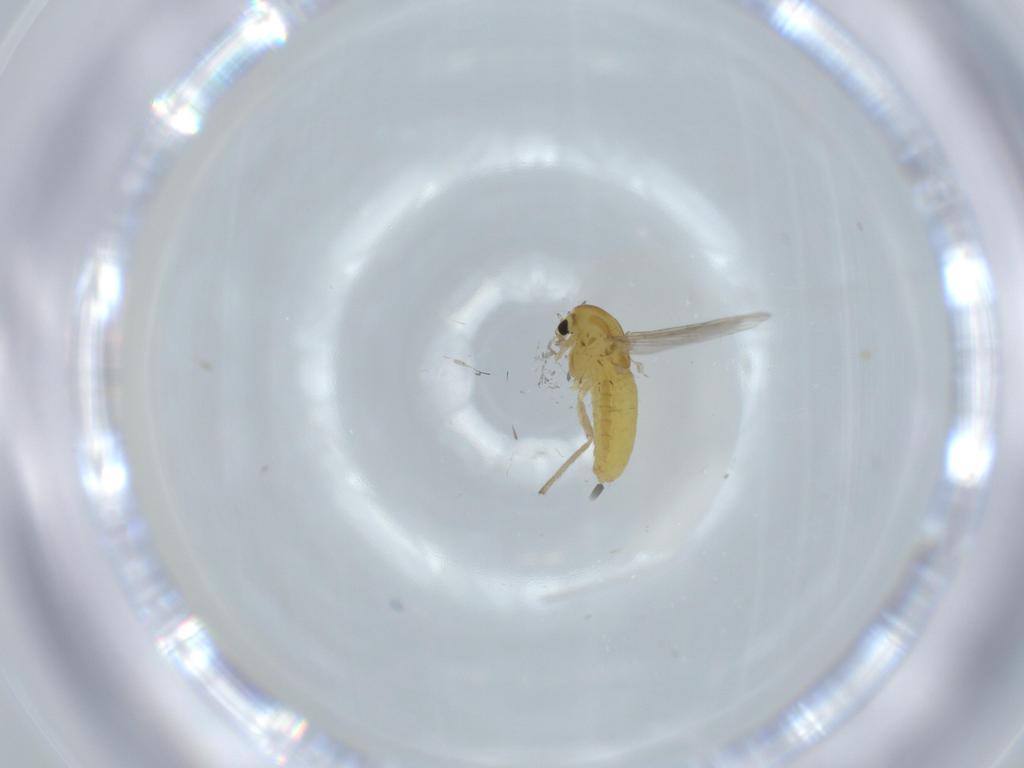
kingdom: Animalia
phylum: Arthropoda
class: Insecta
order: Diptera
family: Chironomidae
